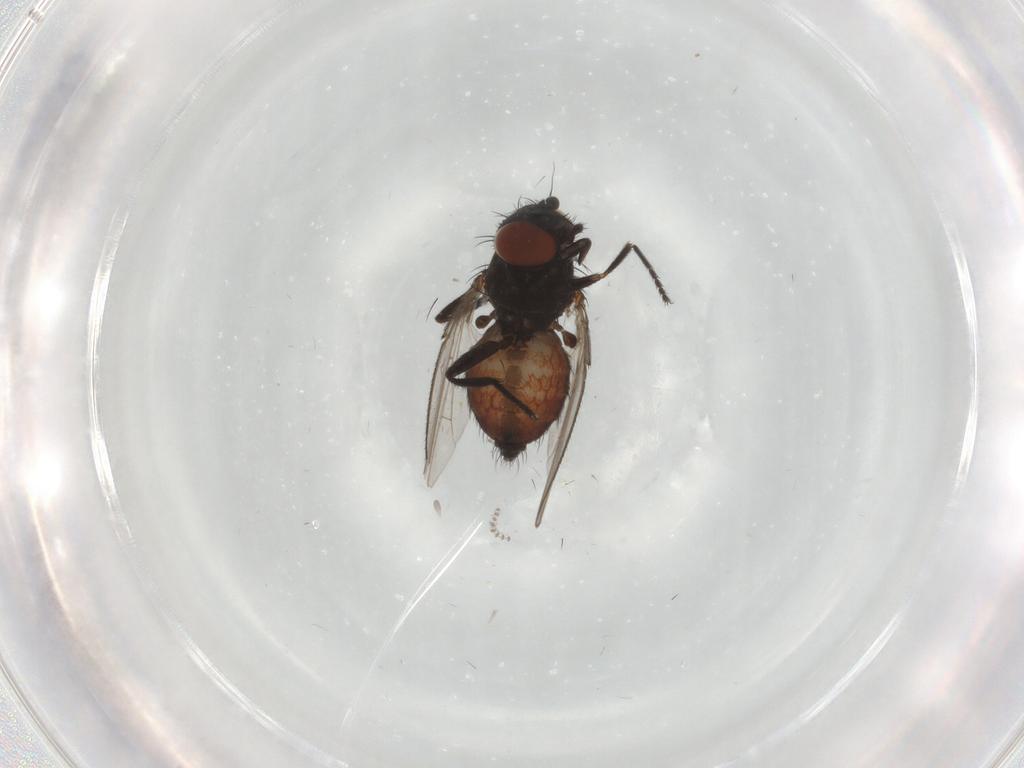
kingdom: Animalia
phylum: Arthropoda
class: Insecta
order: Diptera
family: Milichiidae
